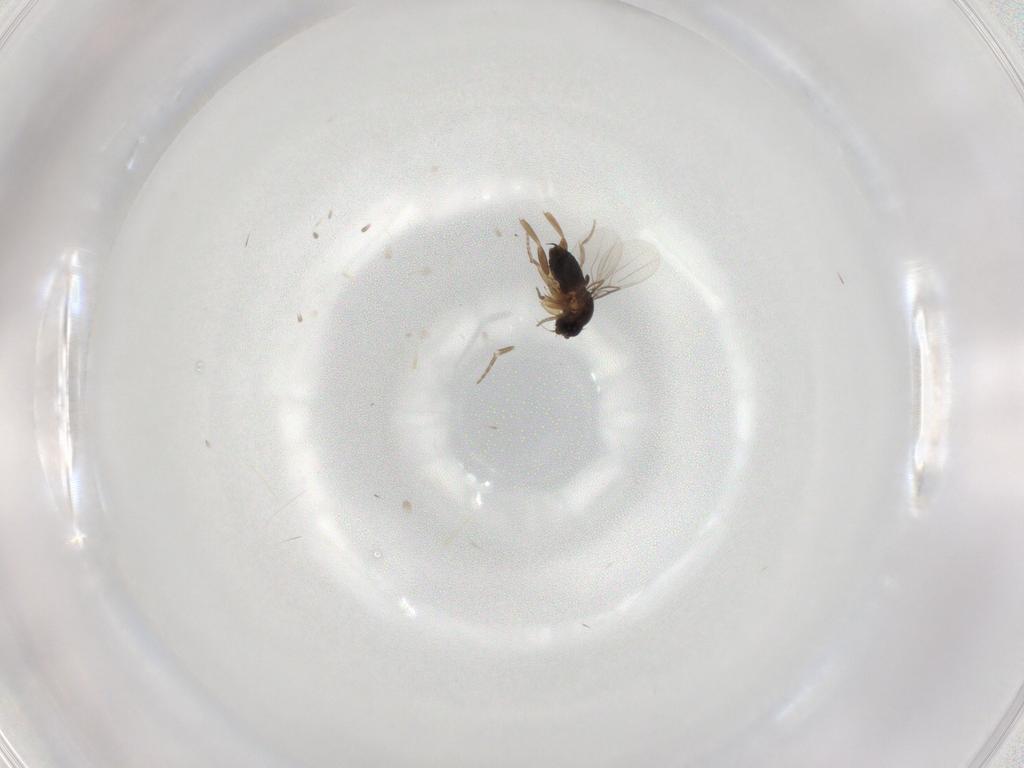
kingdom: Animalia
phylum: Arthropoda
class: Insecta
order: Diptera
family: Phoridae
